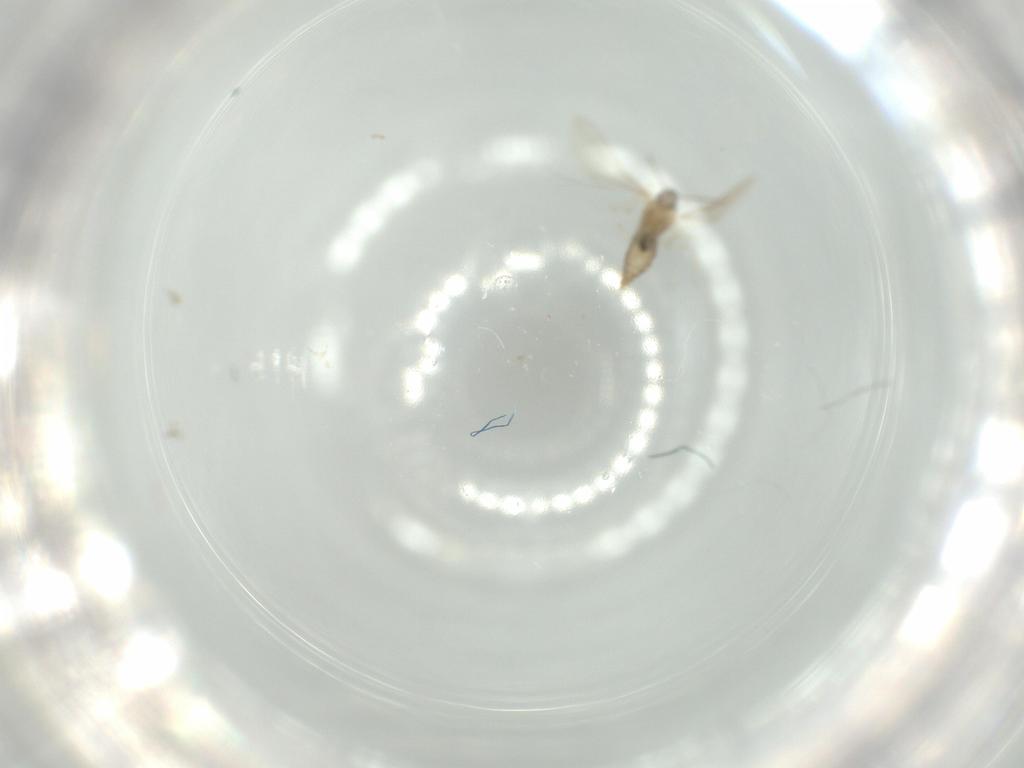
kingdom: Animalia
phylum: Arthropoda
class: Insecta
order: Diptera
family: Cecidomyiidae
